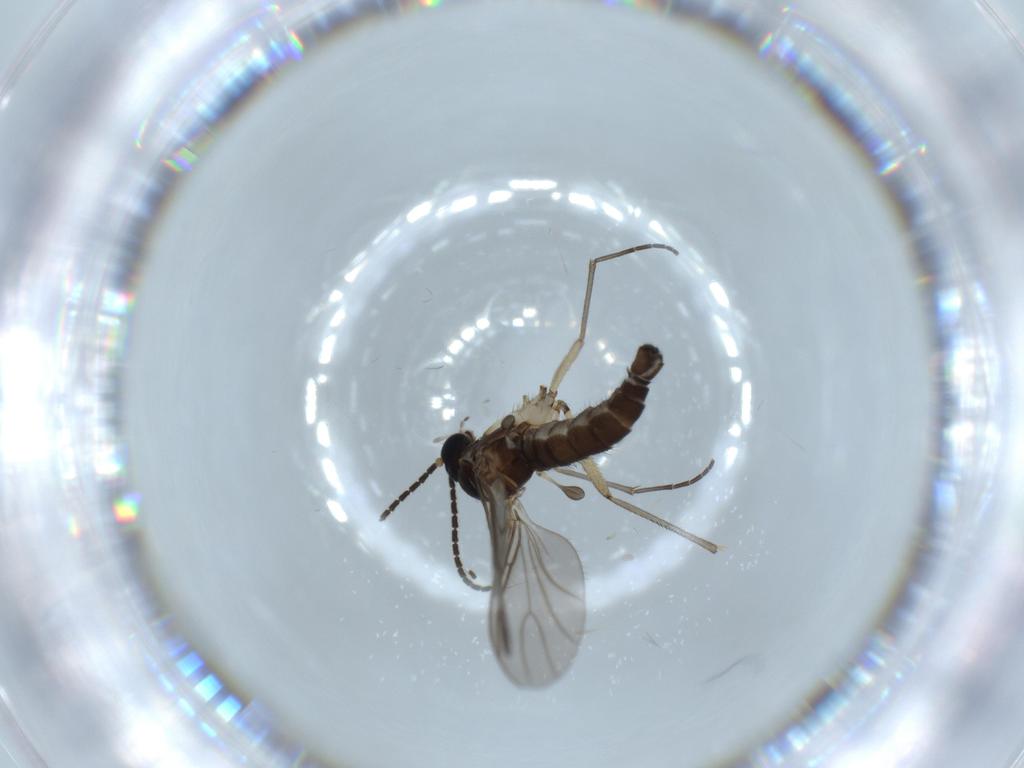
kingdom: Animalia
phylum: Arthropoda
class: Insecta
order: Diptera
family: Sciaridae
